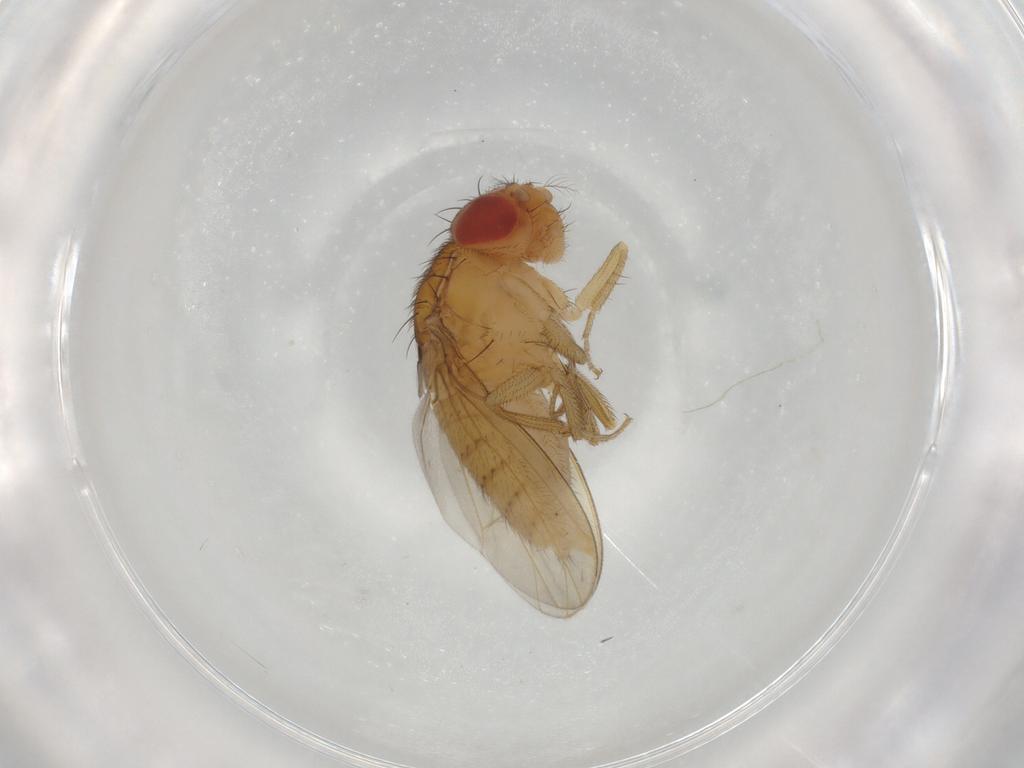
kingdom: Animalia
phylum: Arthropoda
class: Insecta
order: Diptera
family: Drosophilidae
